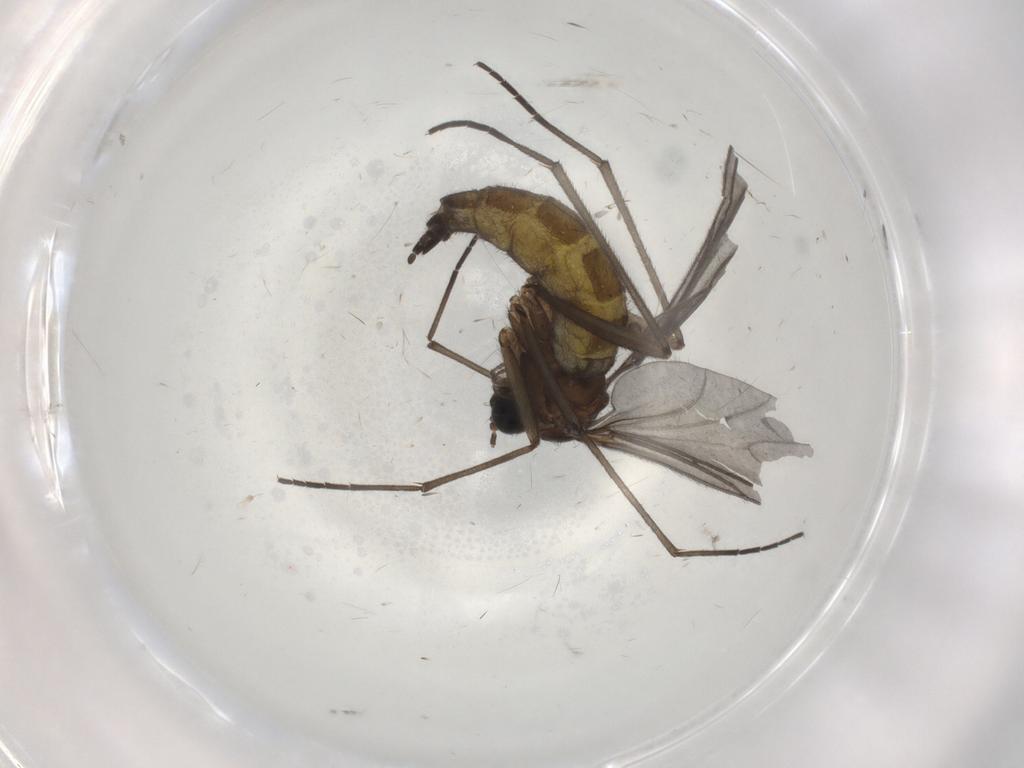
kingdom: Animalia
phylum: Arthropoda
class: Insecta
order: Diptera
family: Sciaridae
